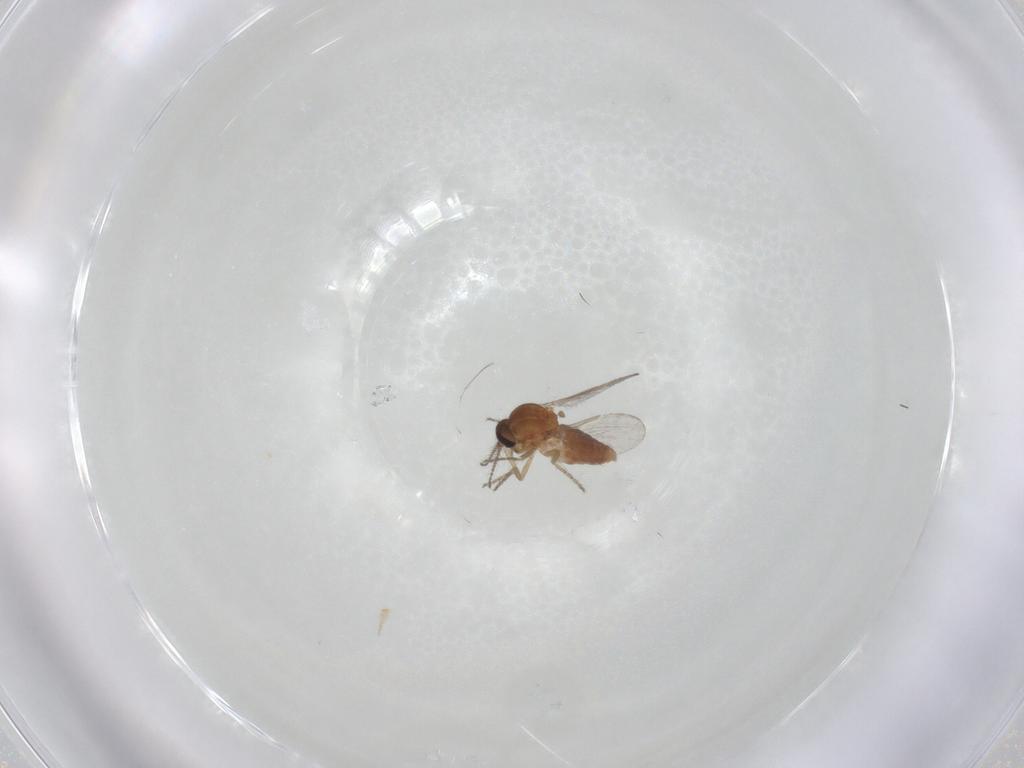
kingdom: Animalia
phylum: Arthropoda
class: Insecta
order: Diptera
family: Ceratopogonidae
